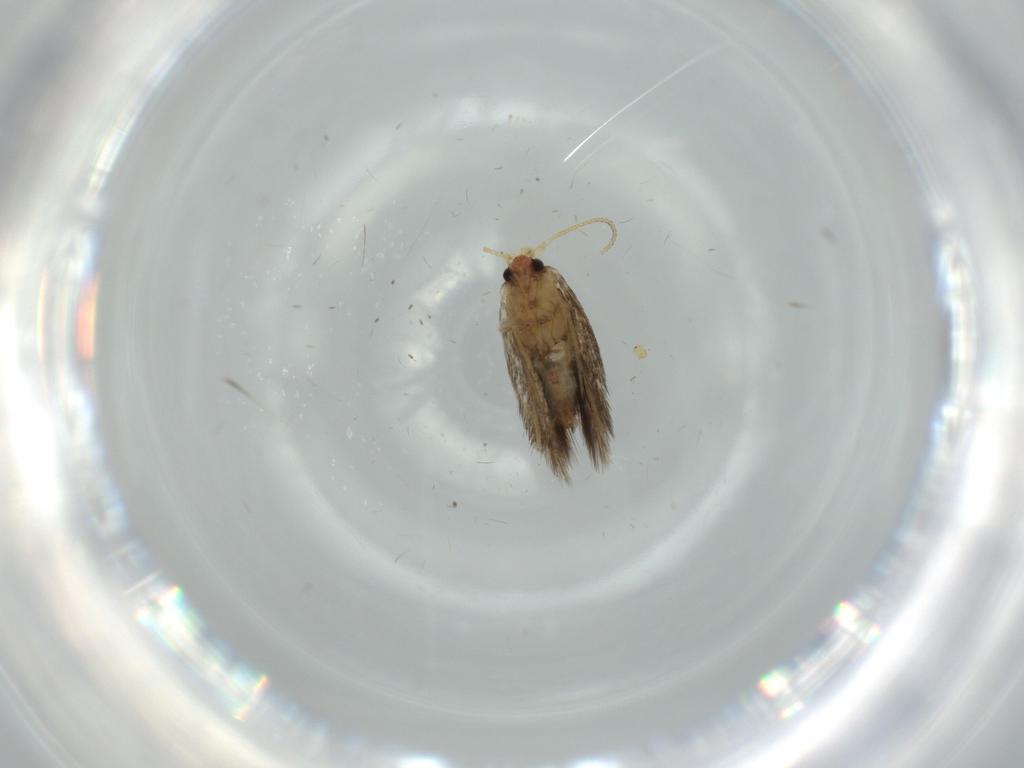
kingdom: Animalia
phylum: Arthropoda
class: Insecta
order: Lepidoptera
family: Nepticulidae
